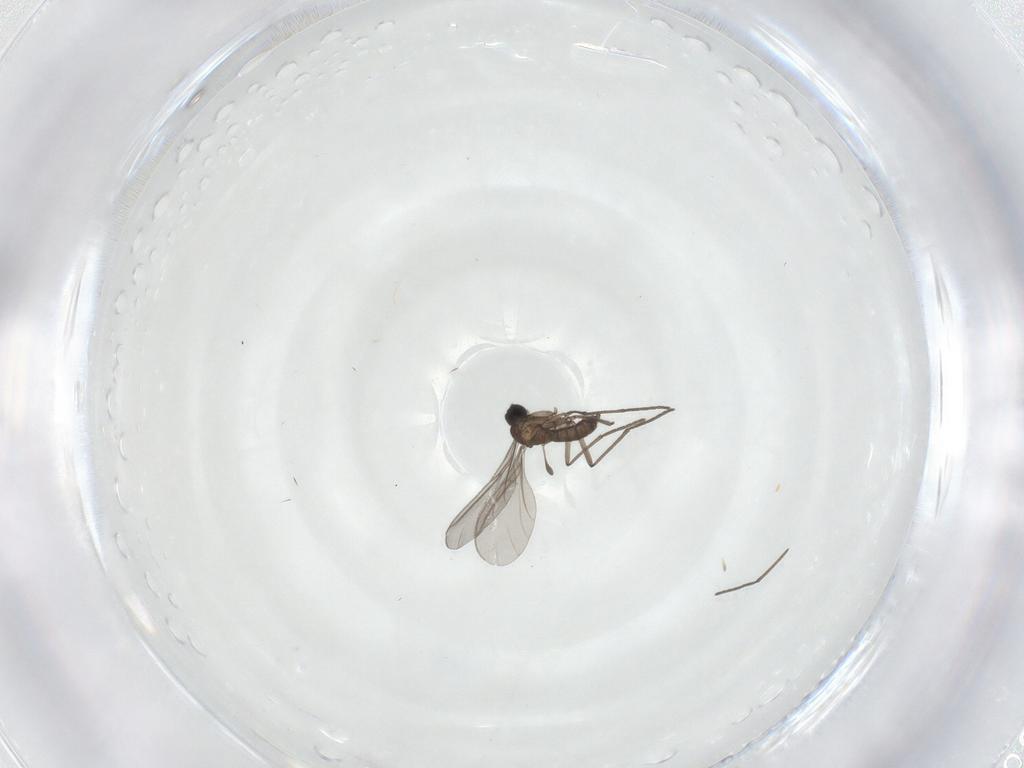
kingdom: Animalia
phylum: Arthropoda
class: Insecta
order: Diptera
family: Sciaridae
